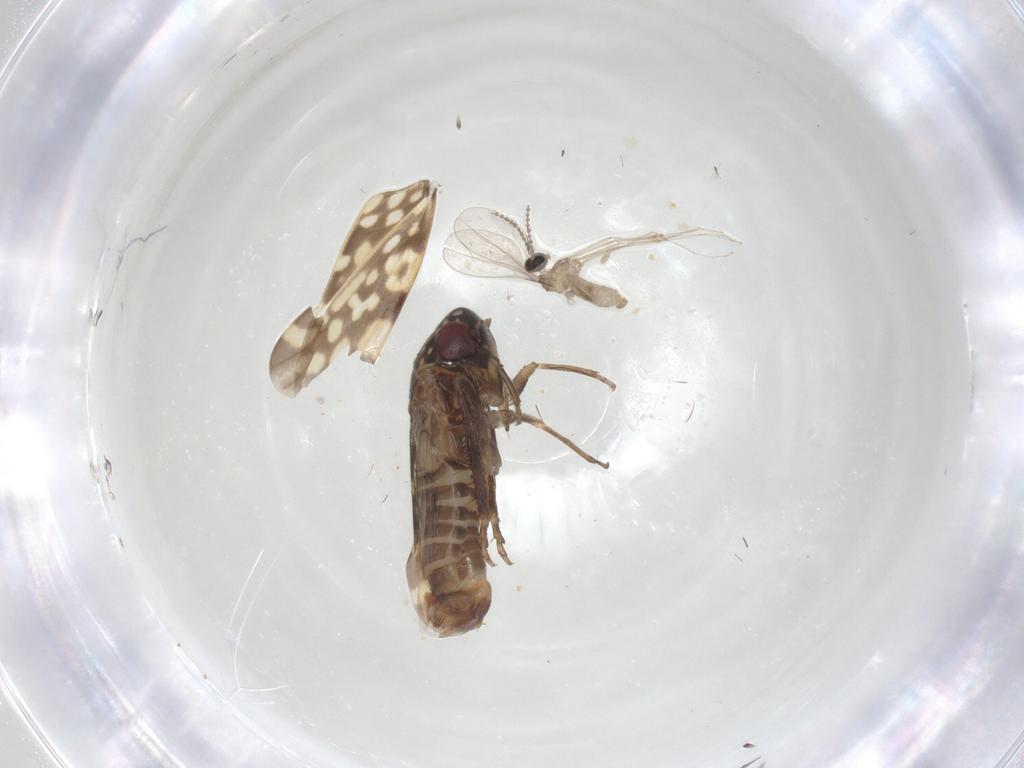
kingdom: Animalia
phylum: Arthropoda
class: Insecta
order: Hemiptera
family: Cicadellidae
